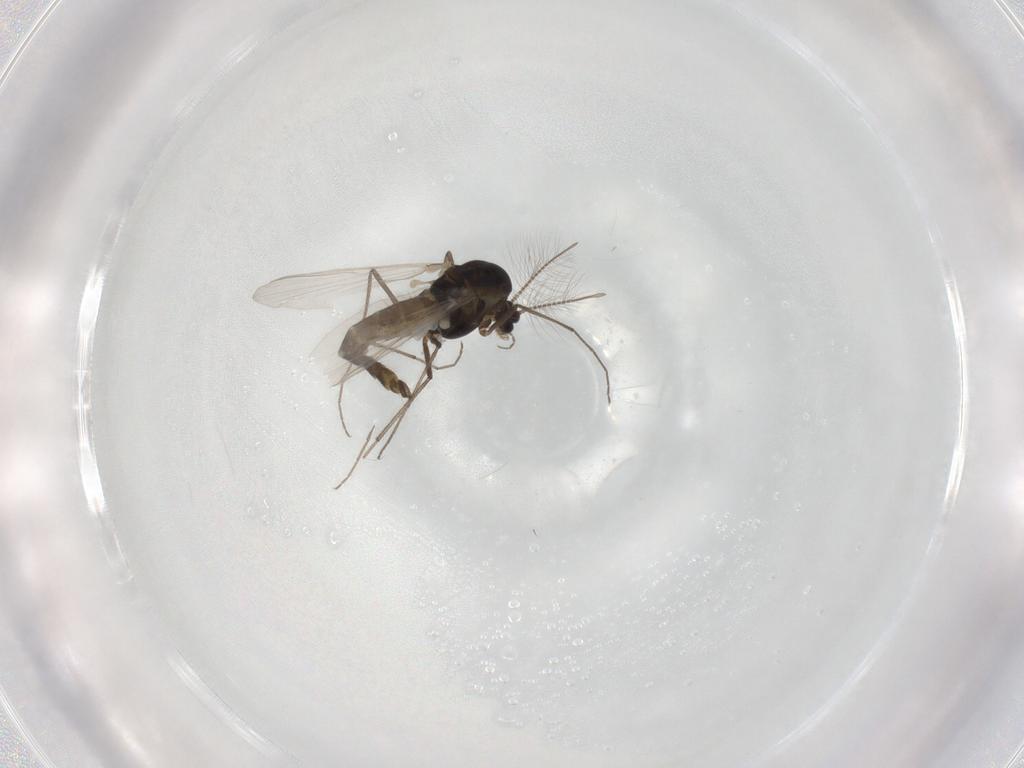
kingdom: Animalia
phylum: Arthropoda
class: Insecta
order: Diptera
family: Chironomidae
